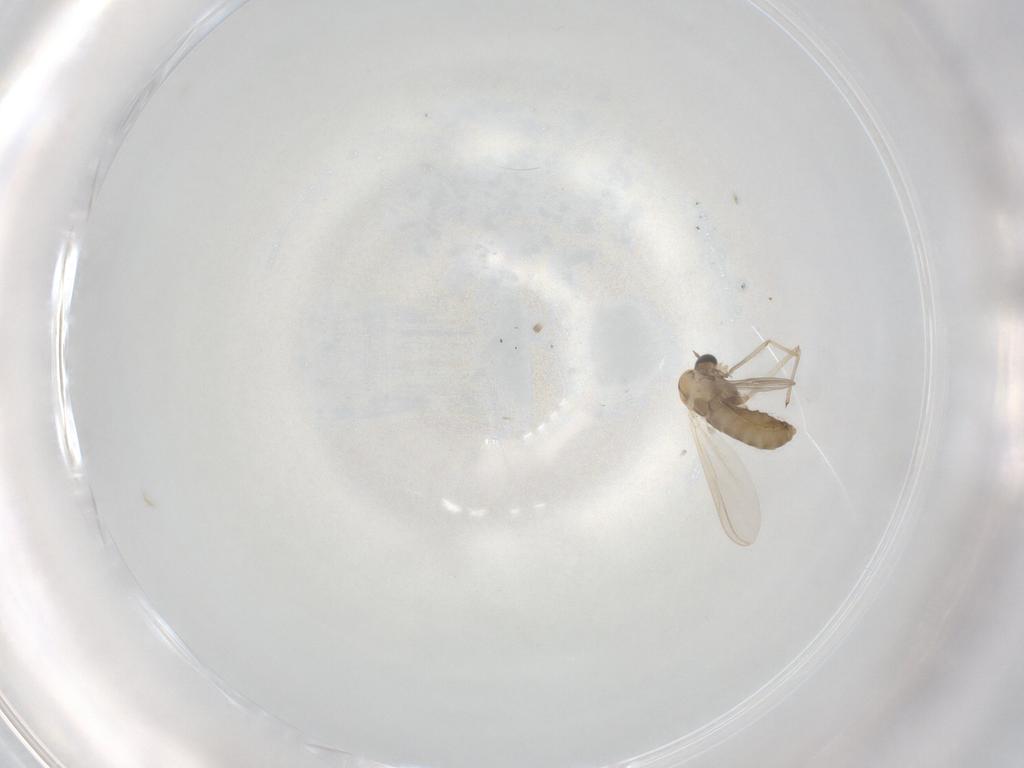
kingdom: Animalia
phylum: Arthropoda
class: Insecta
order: Diptera
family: Chironomidae
